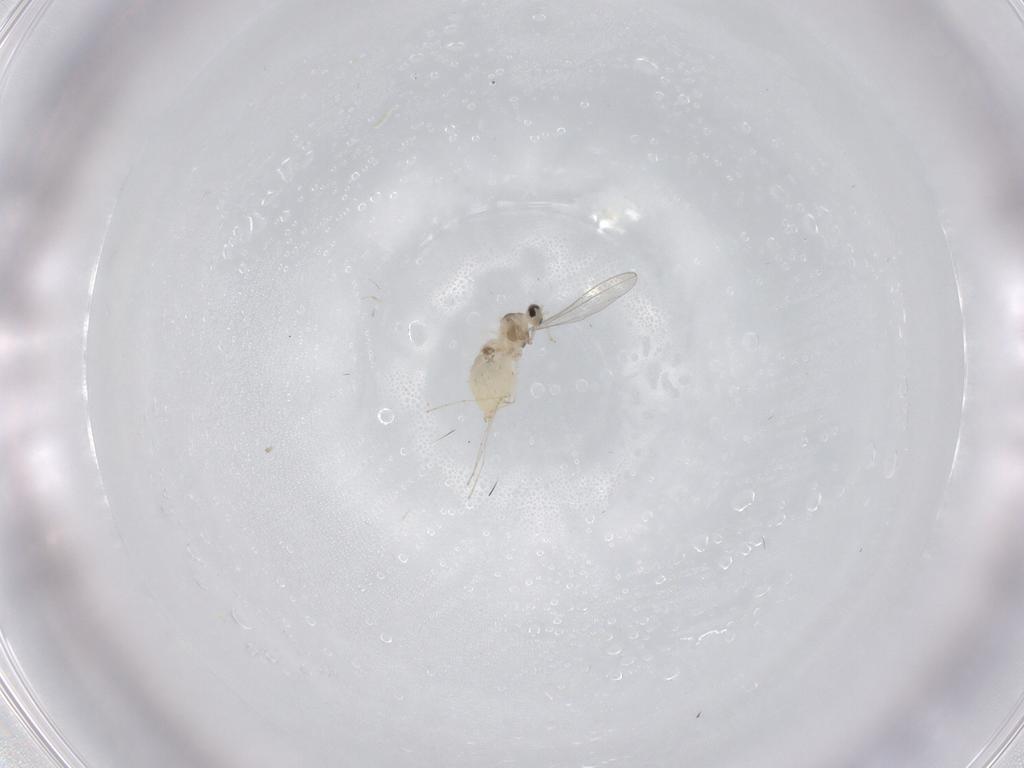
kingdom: Animalia
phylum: Arthropoda
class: Insecta
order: Diptera
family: Cecidomyiidae
